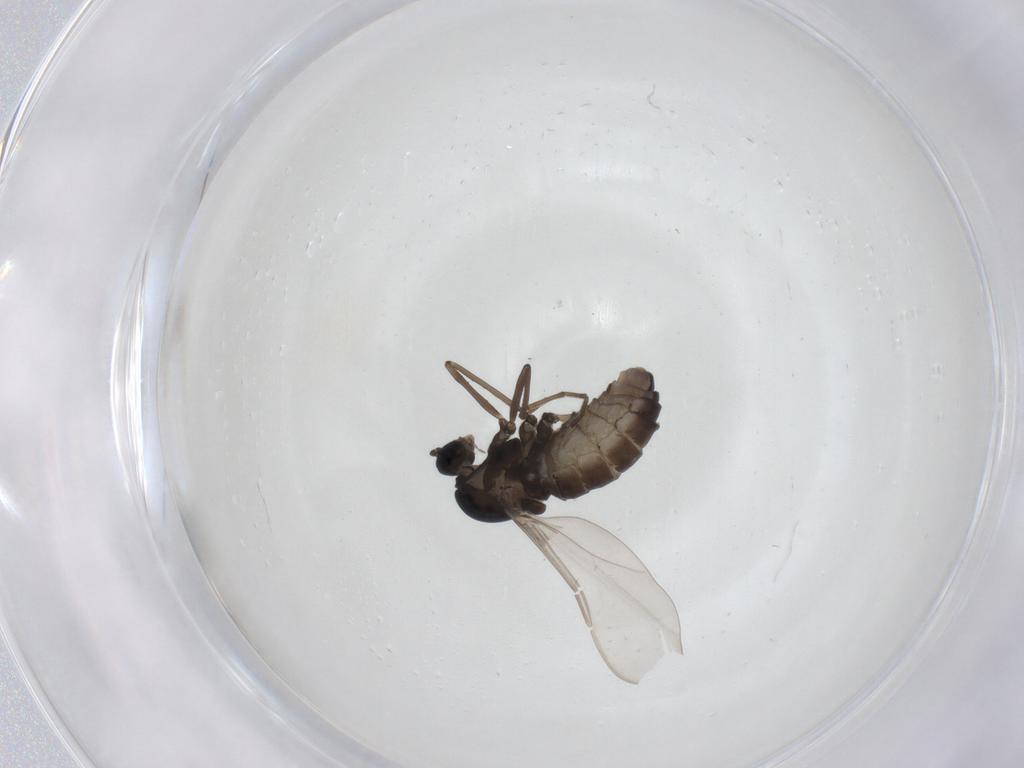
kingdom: Animalia
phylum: Arthropoda
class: Insecta
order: Diptera
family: Cecidomyiidae
